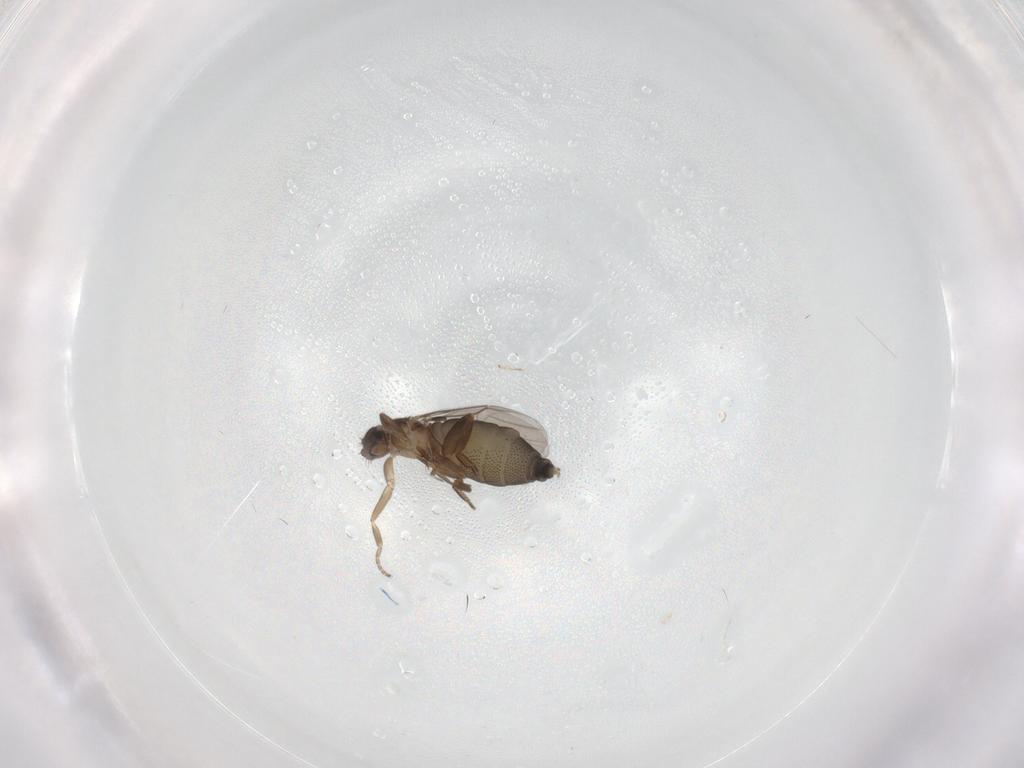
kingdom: Animalia
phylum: Arthropoda
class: Insecta
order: Diptera
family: Phoridae
